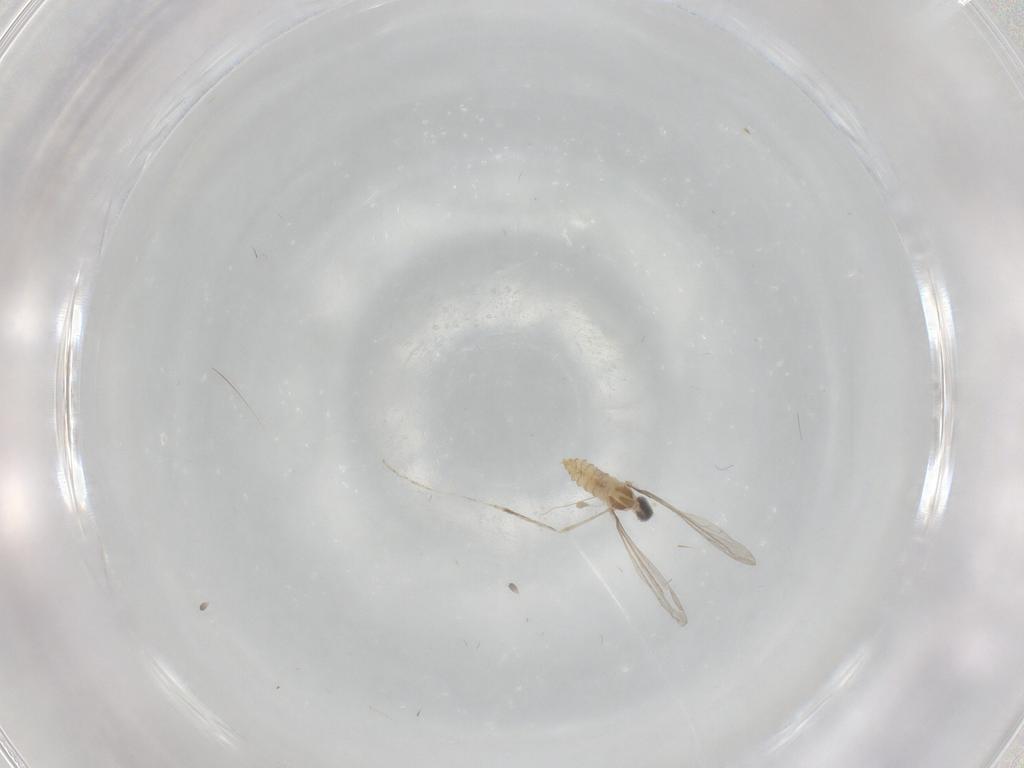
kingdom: Animalia
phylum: Arthropoda
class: Insecta
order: Diptera
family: Cecidomyiidae
